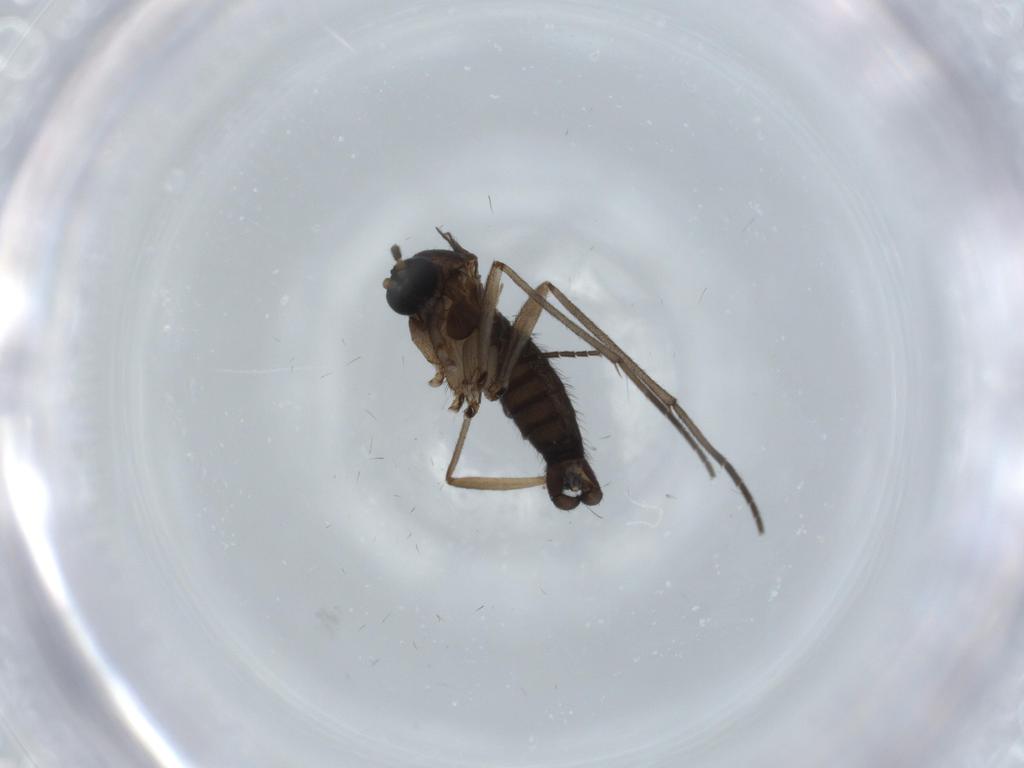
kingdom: Animalia
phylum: Arthropoda
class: Insecta
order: Diptera
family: Sciaridae
